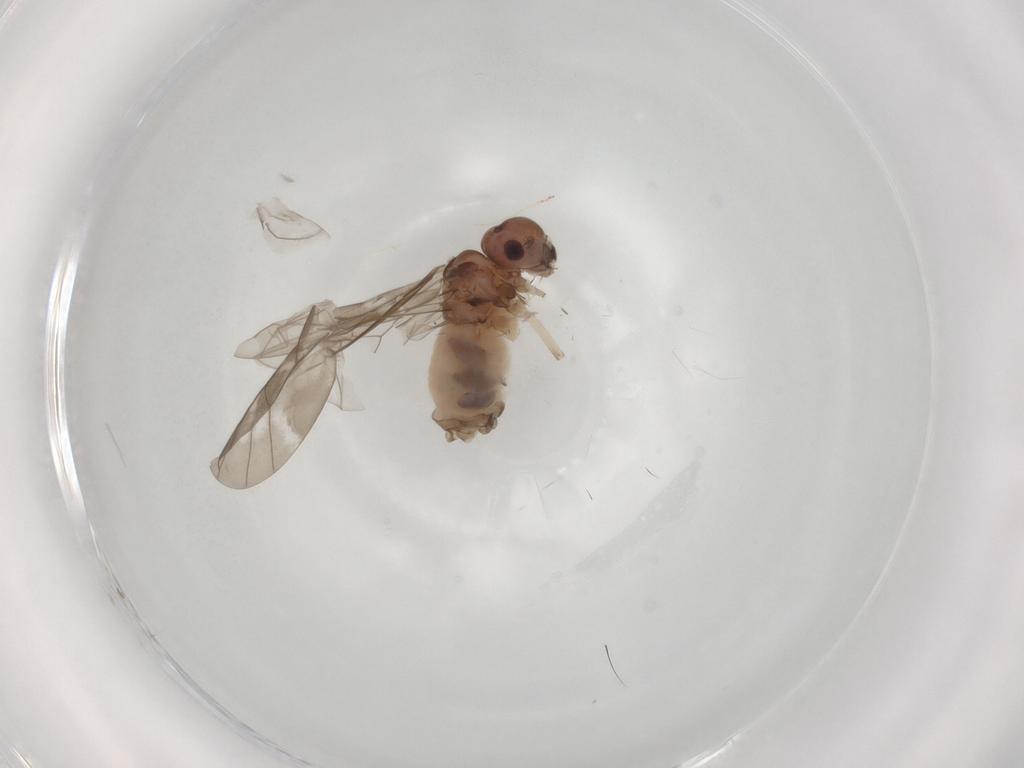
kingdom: Animalia
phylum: Arthropoda
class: Insecta
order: Psocodea
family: Peripsocidae
